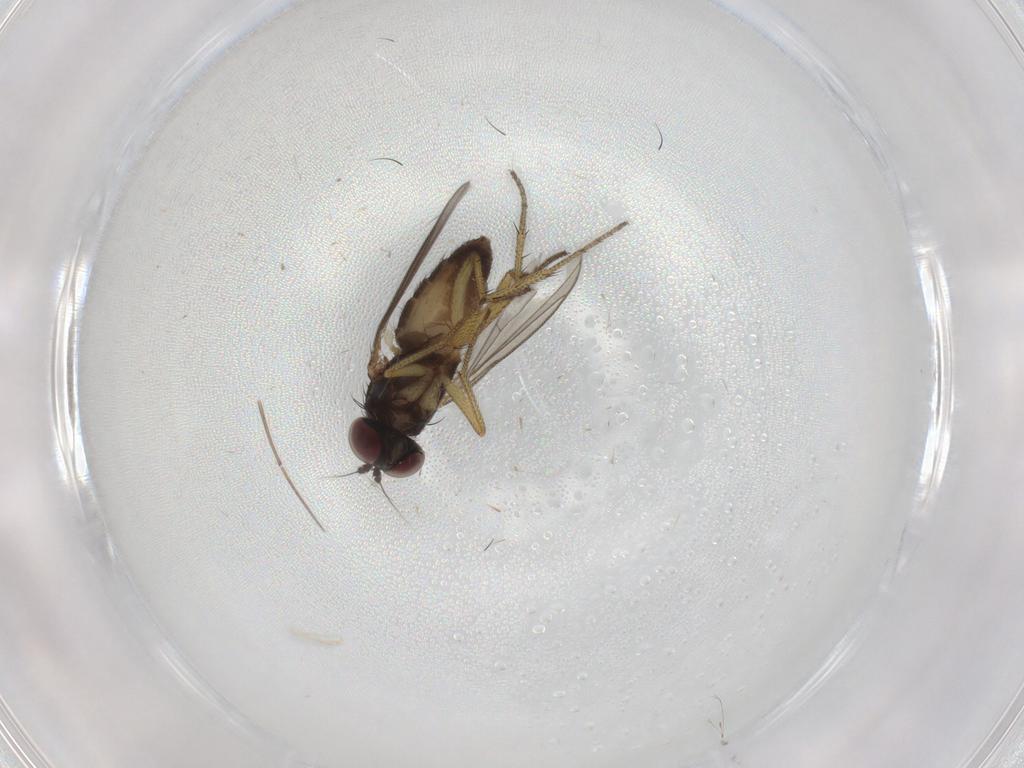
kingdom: Animalia
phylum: Arthropoda
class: Insecta
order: Diptera
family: Dolichopodidae
